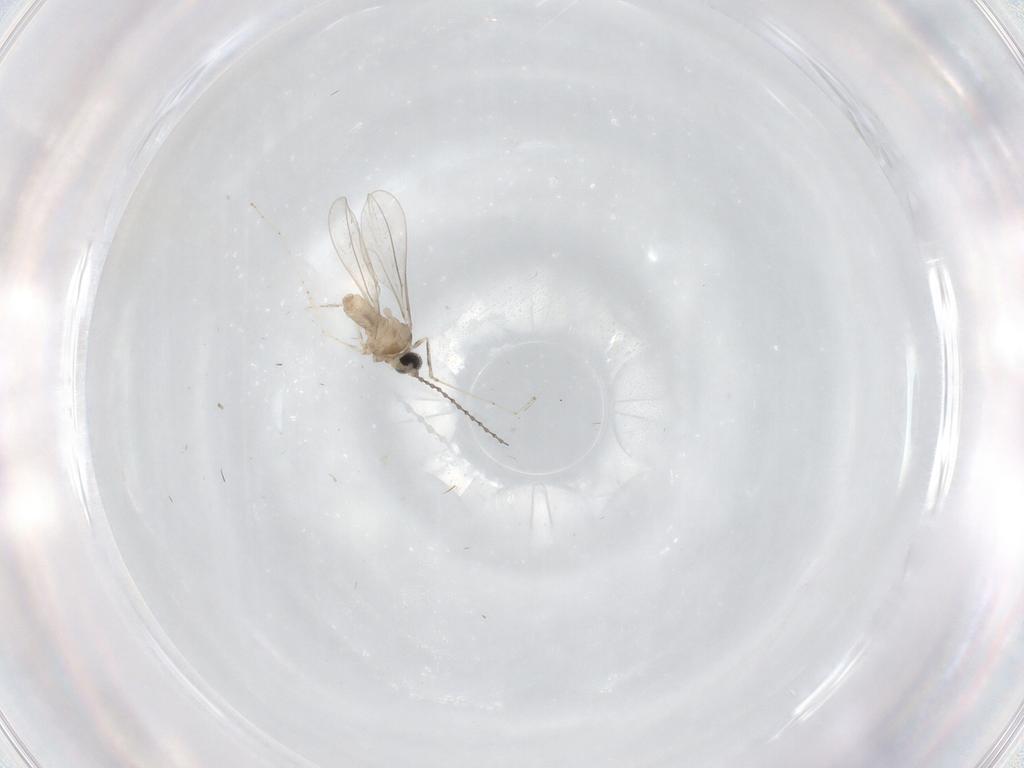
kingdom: Animalia
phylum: Arthropoda
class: Insecta
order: Diptera
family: Cecidomyiidae
